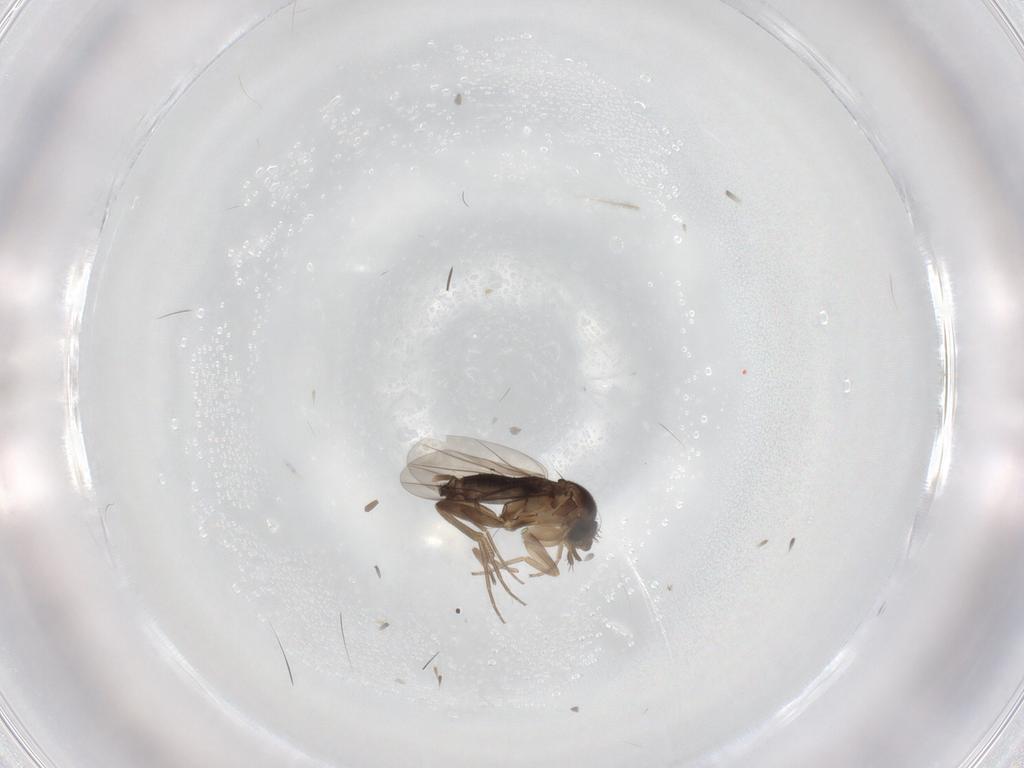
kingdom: Animalia
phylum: Arthropoda
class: Insecta
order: Diptera
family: Phoridae
